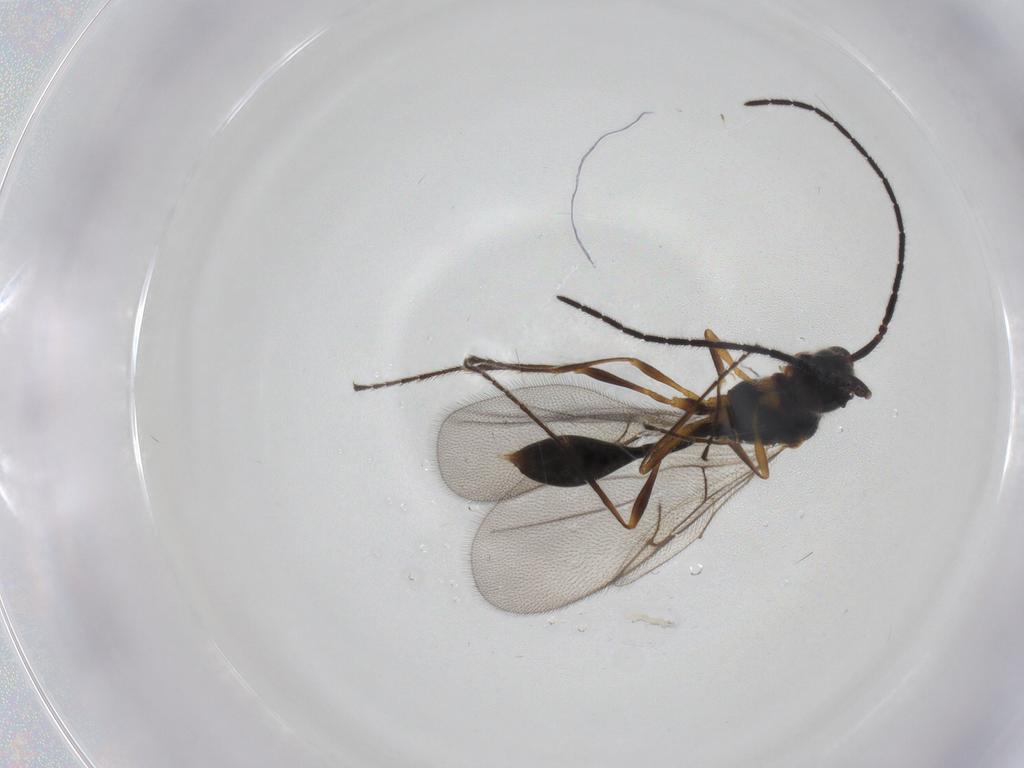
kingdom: Animalia
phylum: Arthropoda
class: Insecta
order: Hymenoptera
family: Diapriidae
